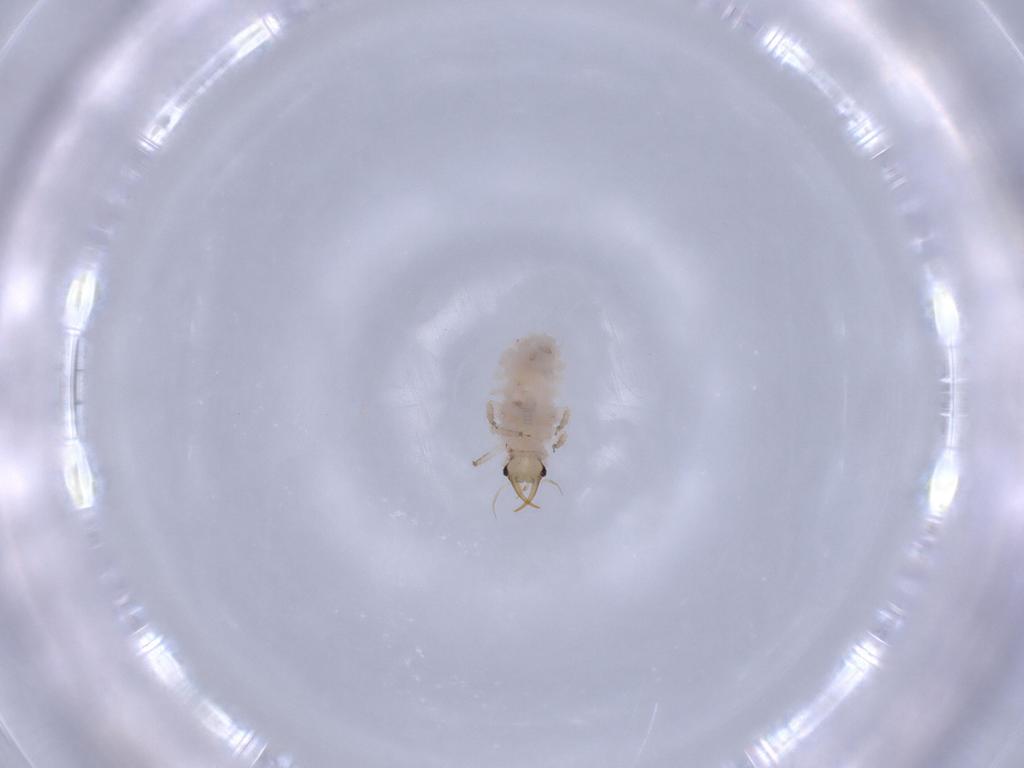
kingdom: Animalia
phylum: Arthropoda
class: Insecta
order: Neuroptera
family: Chrysopidae
